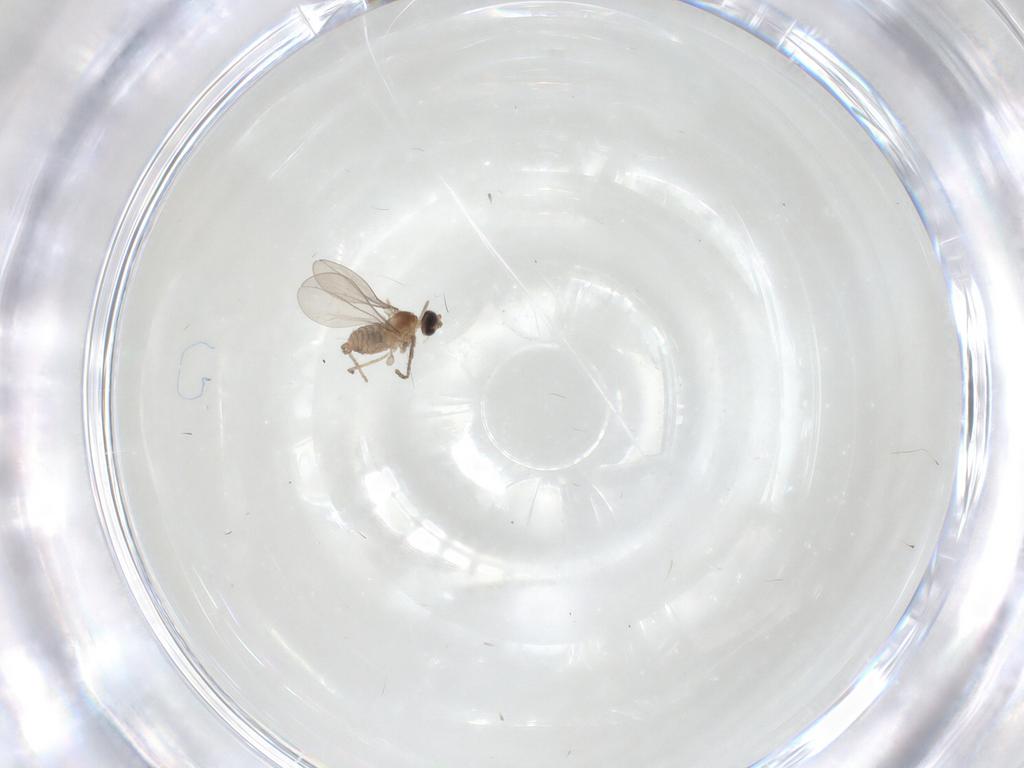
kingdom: Animalia
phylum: Arthropoda
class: Insecta
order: Diptera
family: Cecidomyiidae
